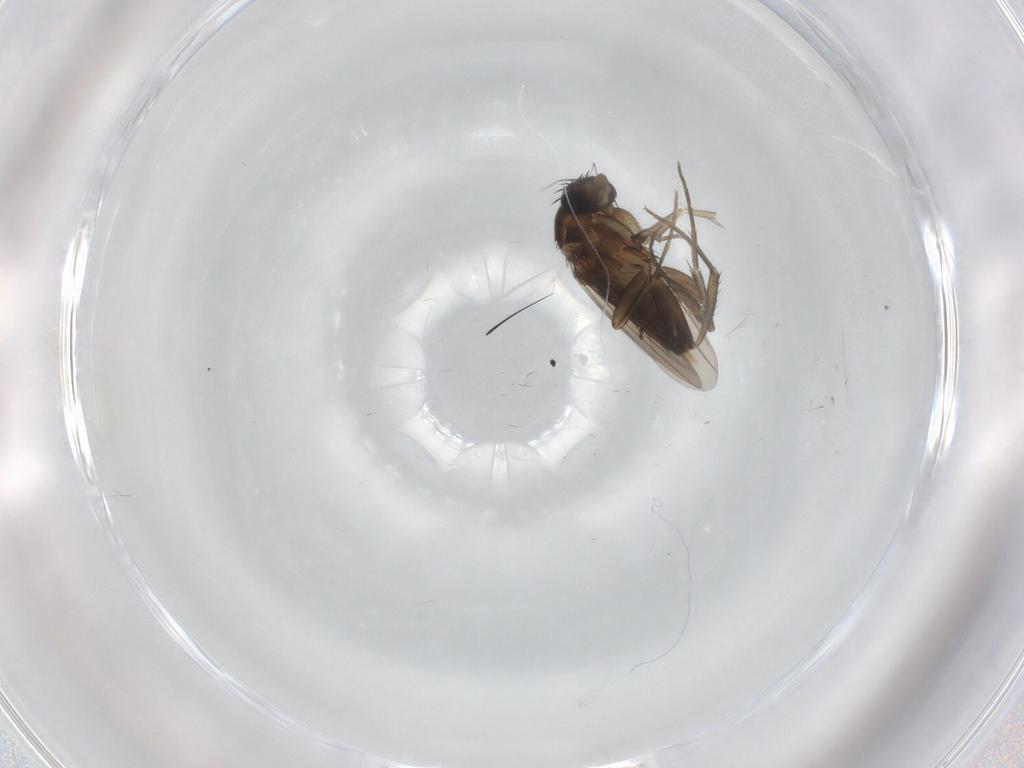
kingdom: Animalia
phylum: Arthropoda
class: Insecta
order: Diptera
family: Phoridae
